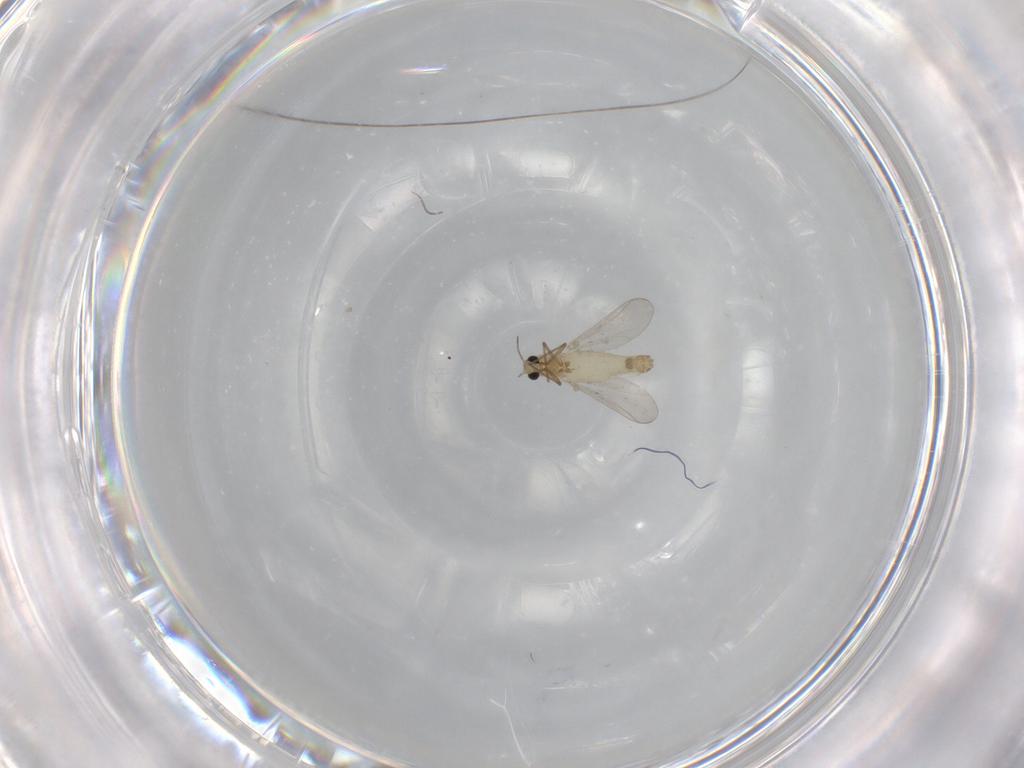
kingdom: Animalia
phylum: Arthropoda
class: Insecta
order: Diptera
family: Chironomidae
